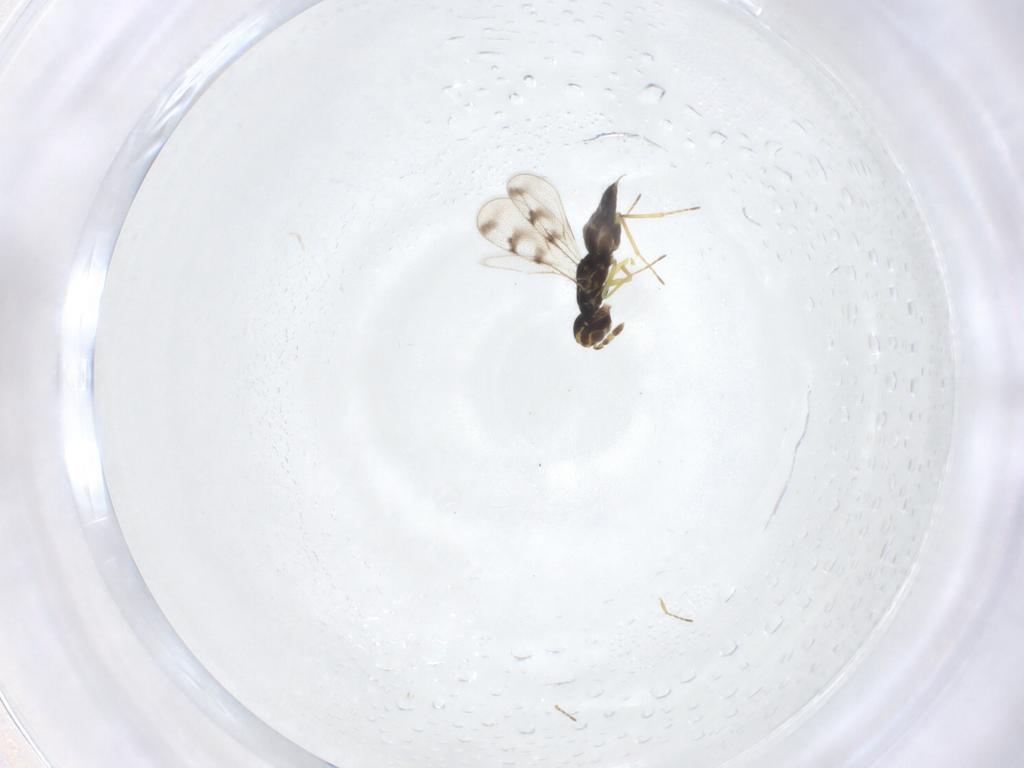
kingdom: Animalia
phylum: Arthropoda
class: Insecta
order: Hymenoptera
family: Eulophidae
